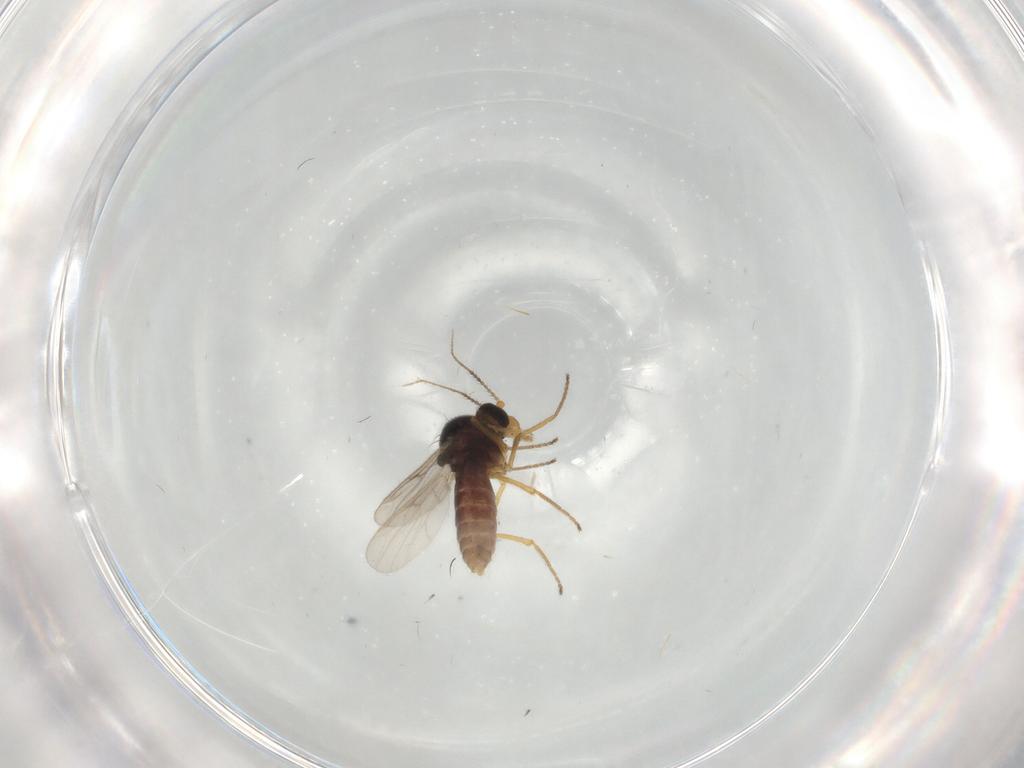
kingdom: Animalia
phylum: Arthropoda
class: Insecta
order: Diptera
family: Ceratopogonidae
